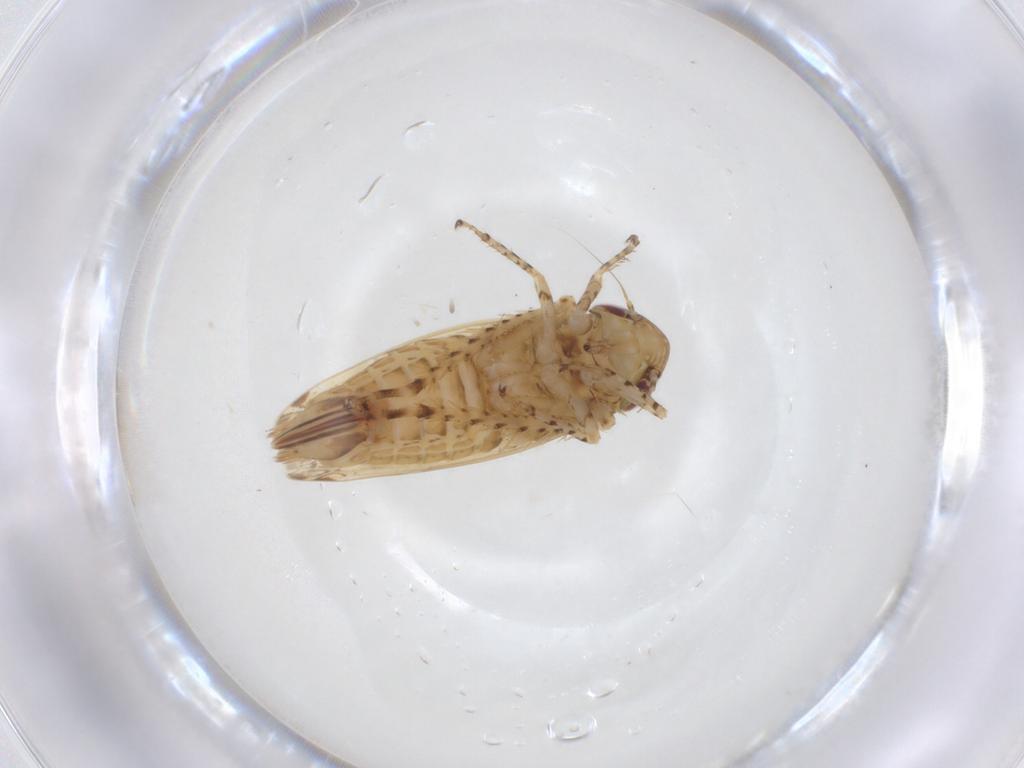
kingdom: Animalia
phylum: Arthropoda
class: Insecta
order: Hemiptera
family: Cicadellidae
